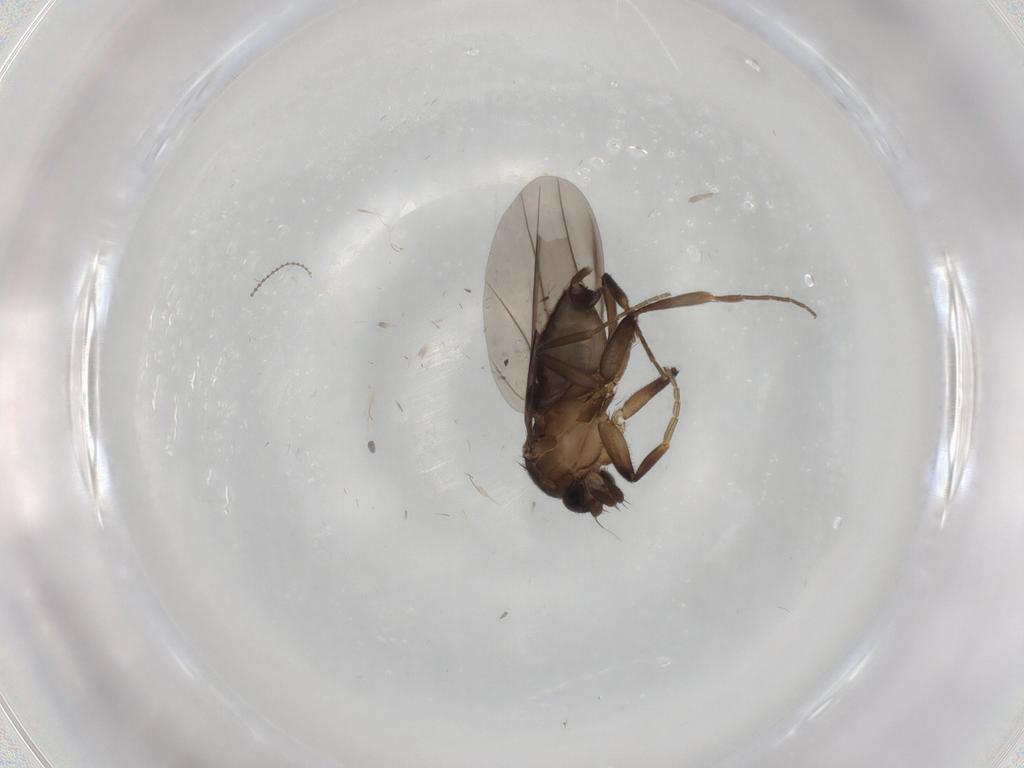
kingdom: Animalia
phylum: Arthropoda
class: Insecta
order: Diptera
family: Phoridae
